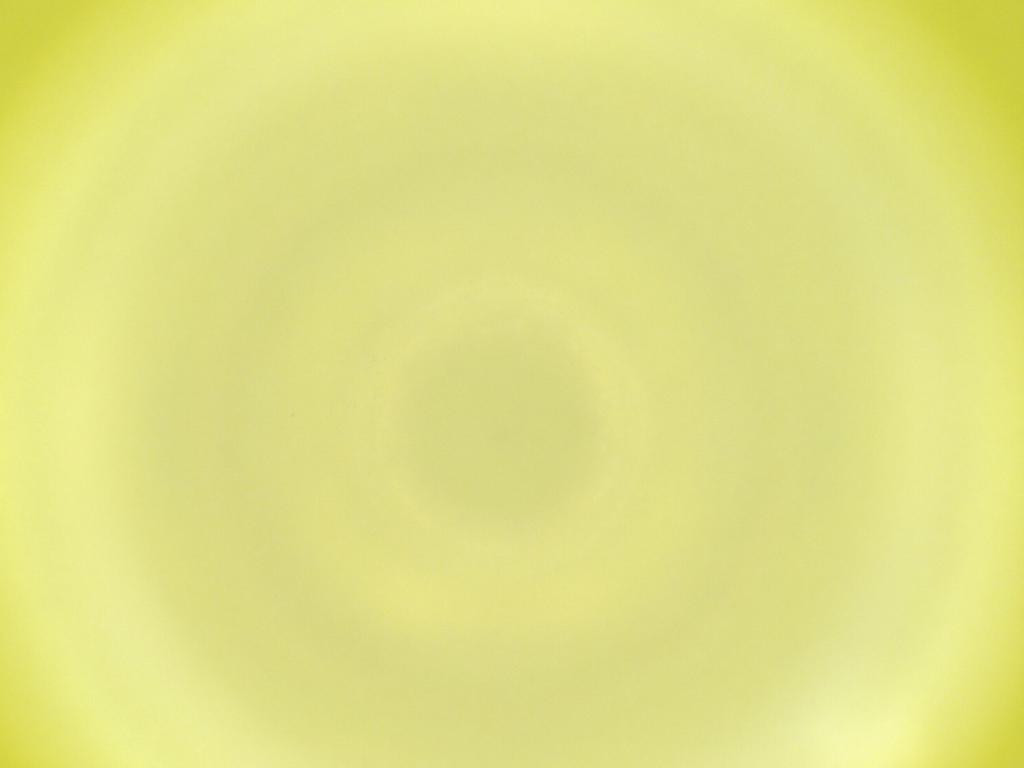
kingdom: Animalia
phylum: Arthropoda
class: Insecta
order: Diptera
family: Cecidomyiidae
